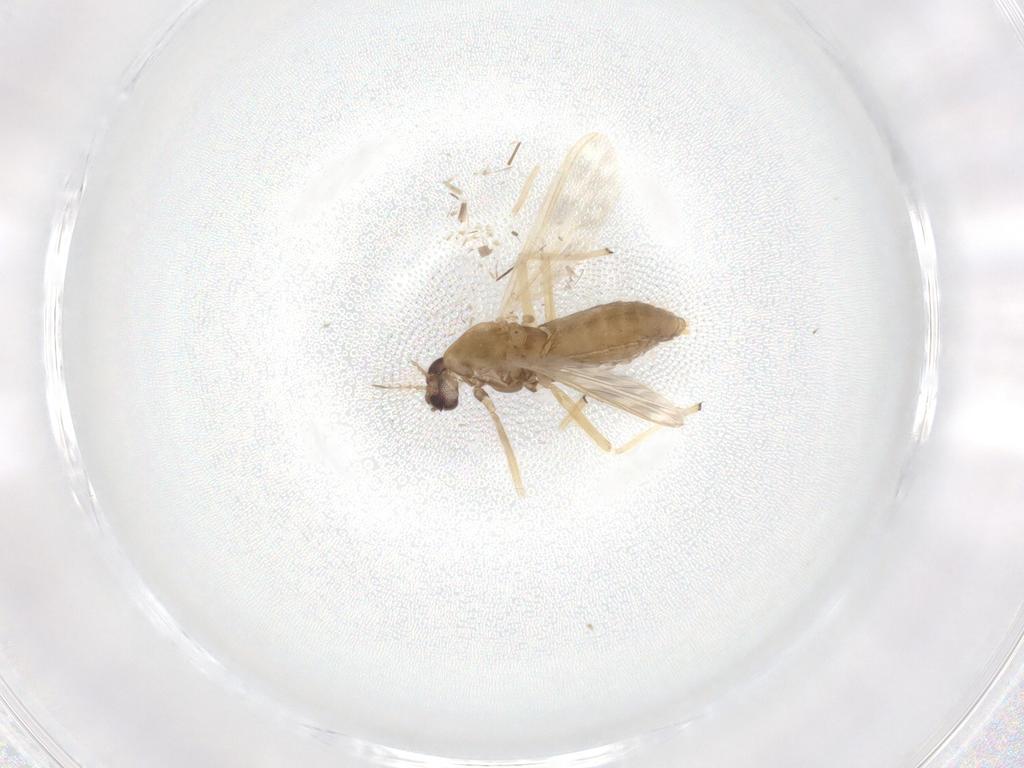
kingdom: Animalia
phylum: Arthropoda
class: Insecta
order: Diptera
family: Chironomidae
